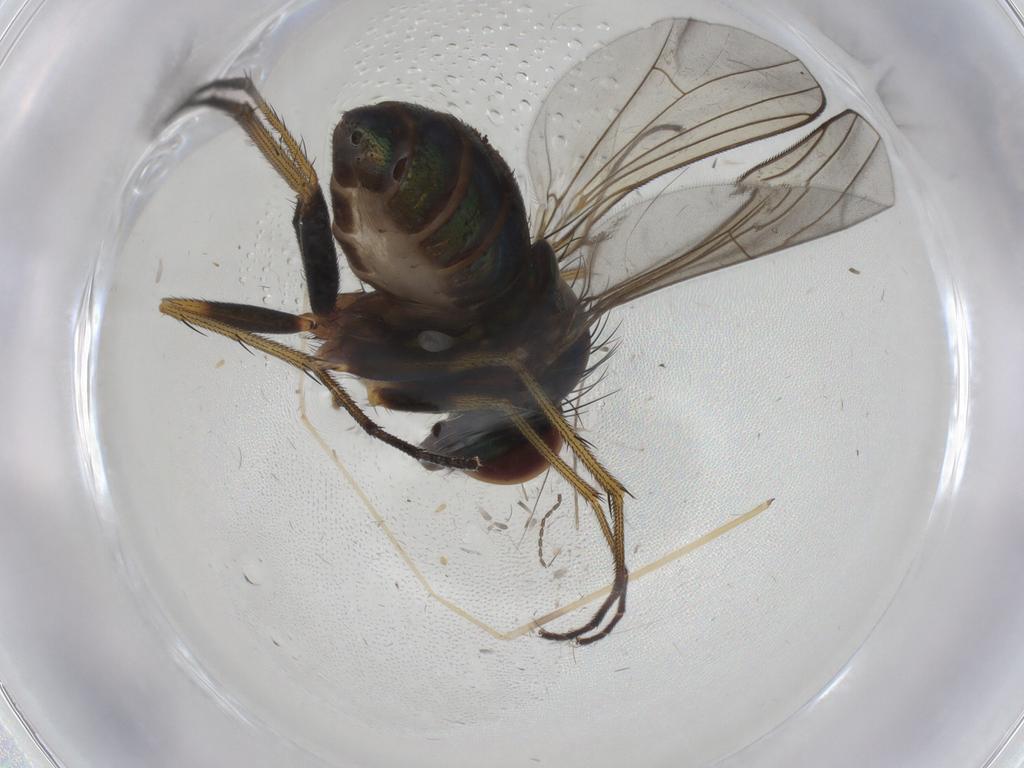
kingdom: Animalia
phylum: Arthropoda
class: Insecta
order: Diptera
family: Dolichopodidae
